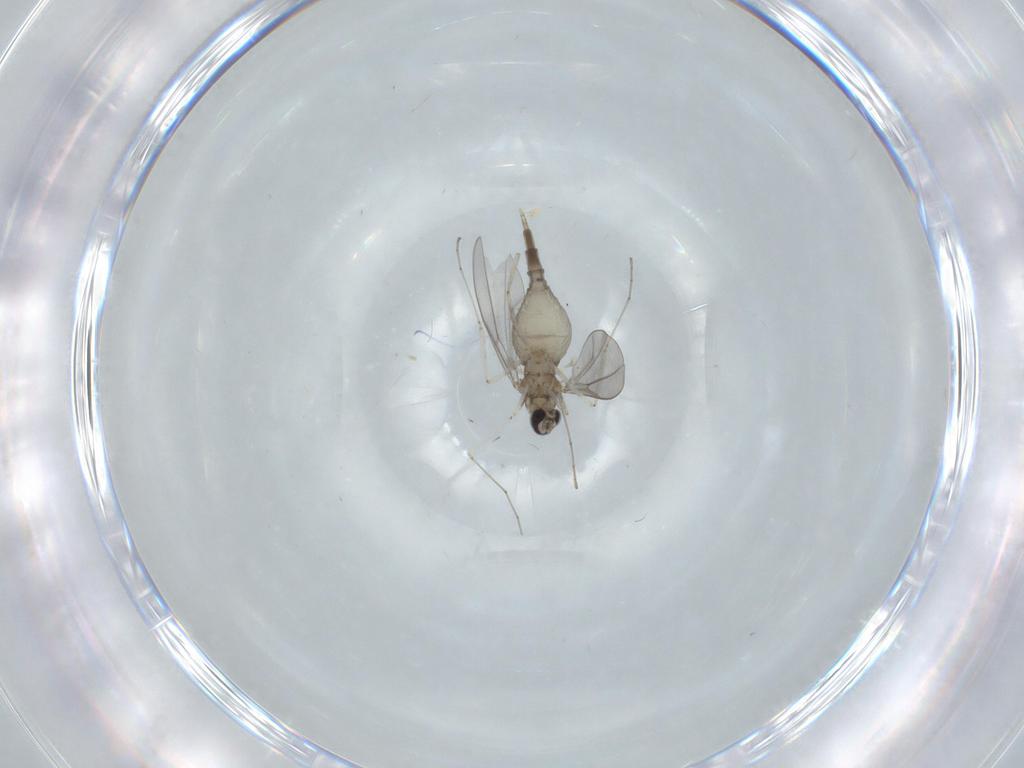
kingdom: Animalia
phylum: Arthropoda
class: Insecta
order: Diptera
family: Cecidomyiidae
